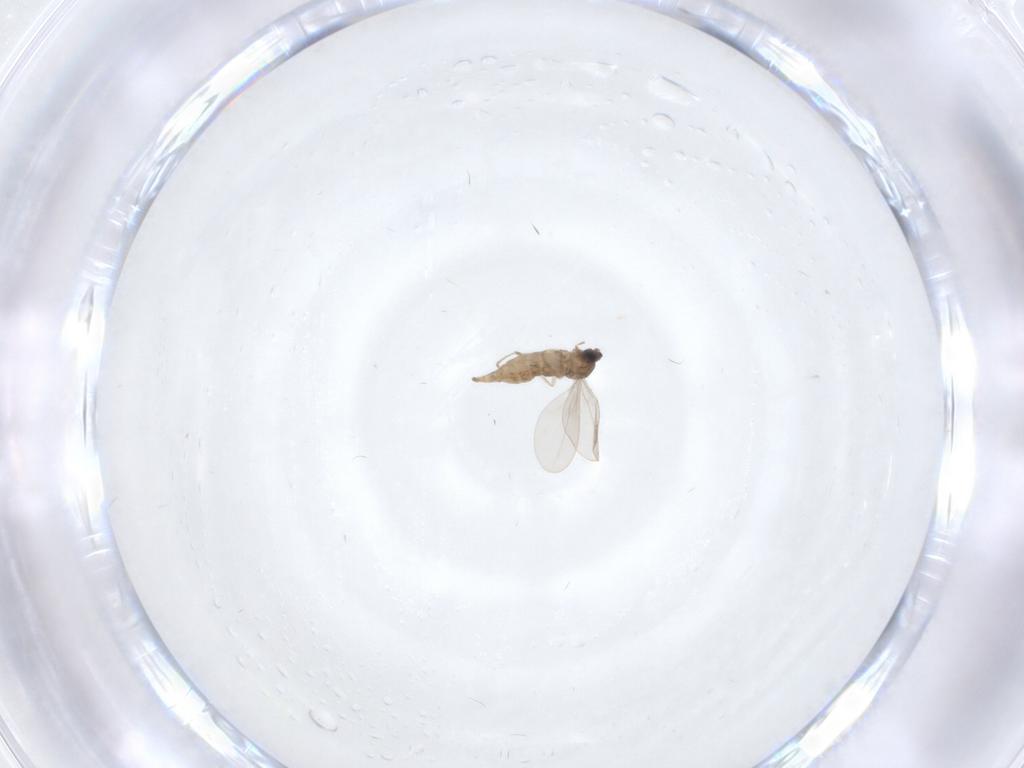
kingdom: Animalia
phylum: Arthropoda
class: Insecta
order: Diptera
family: Cecidomyiidae
